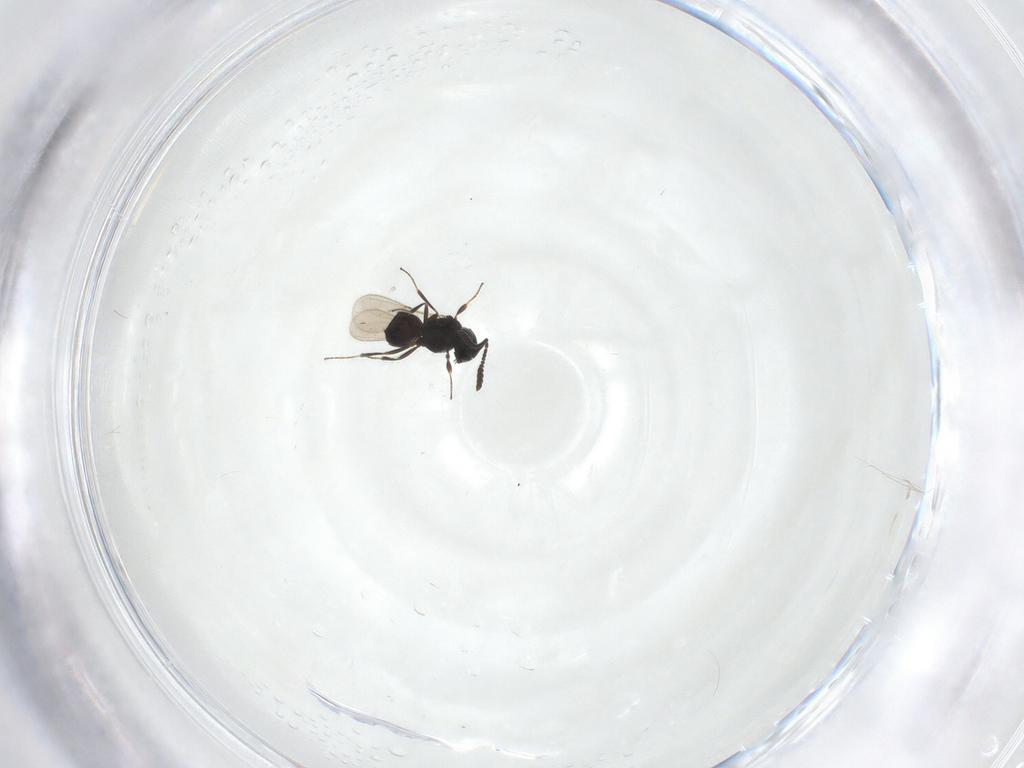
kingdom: Animalia
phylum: Arthropoda
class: Insecta
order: Hymenoptera
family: Scelionidae
